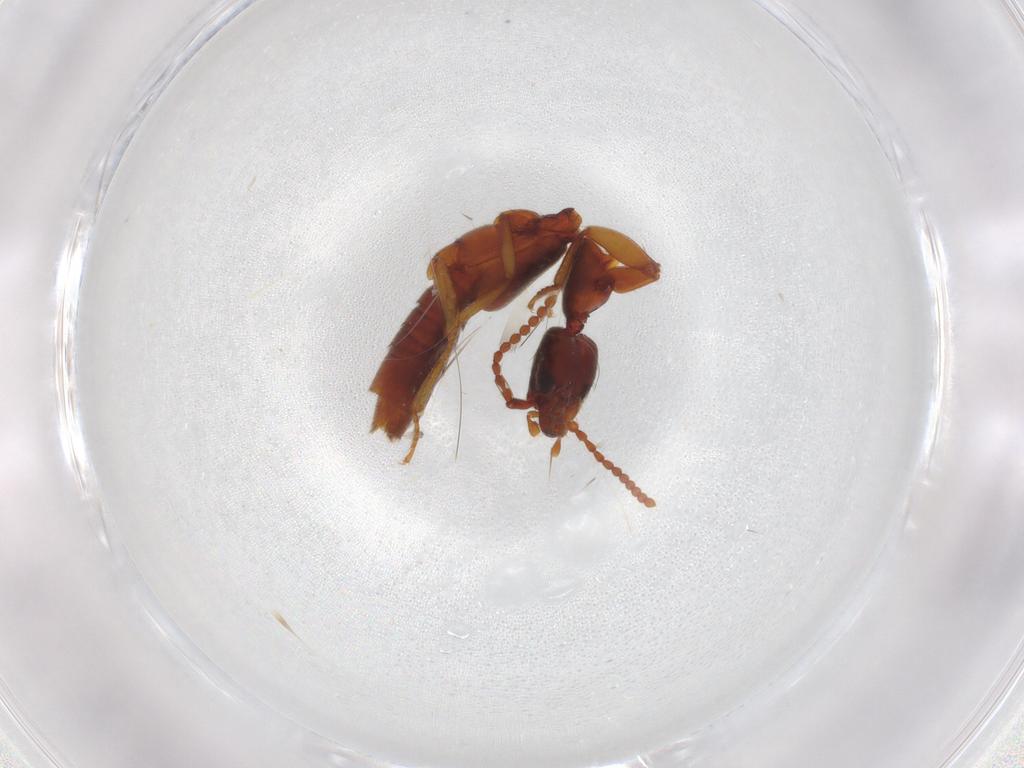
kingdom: Animalia
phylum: Arthropoda
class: Insecta
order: Coleoptera
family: Staphylinidae
